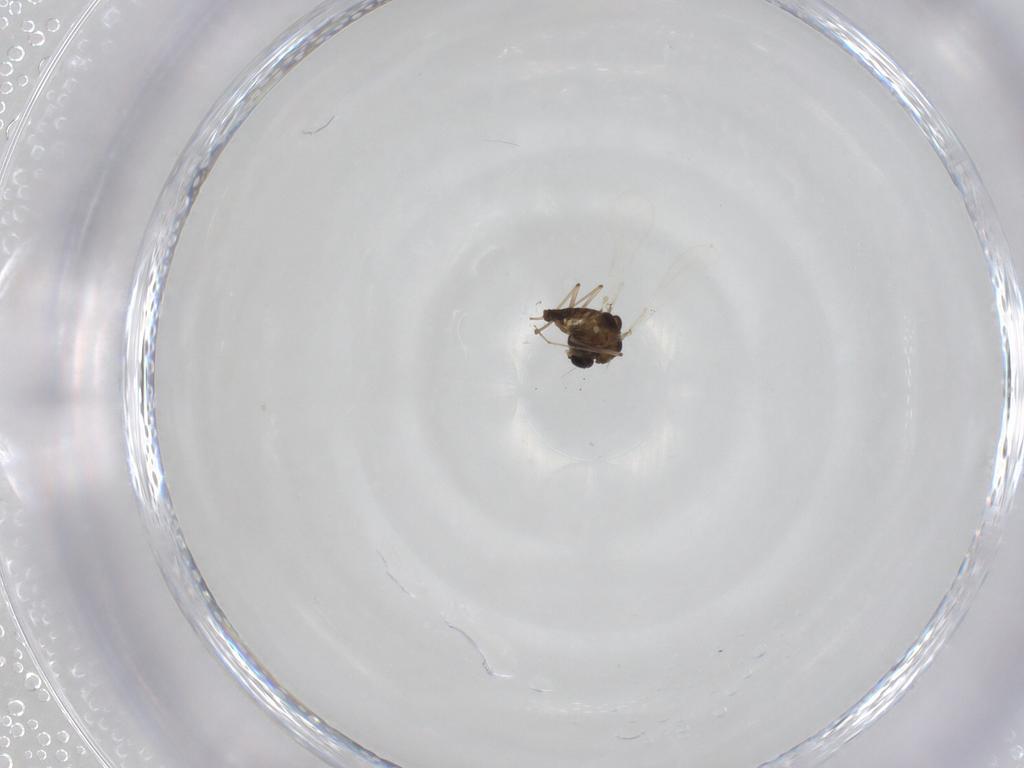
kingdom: Animalia
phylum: Arthropoda
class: Insecta
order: Diptera
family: Chironomidae
